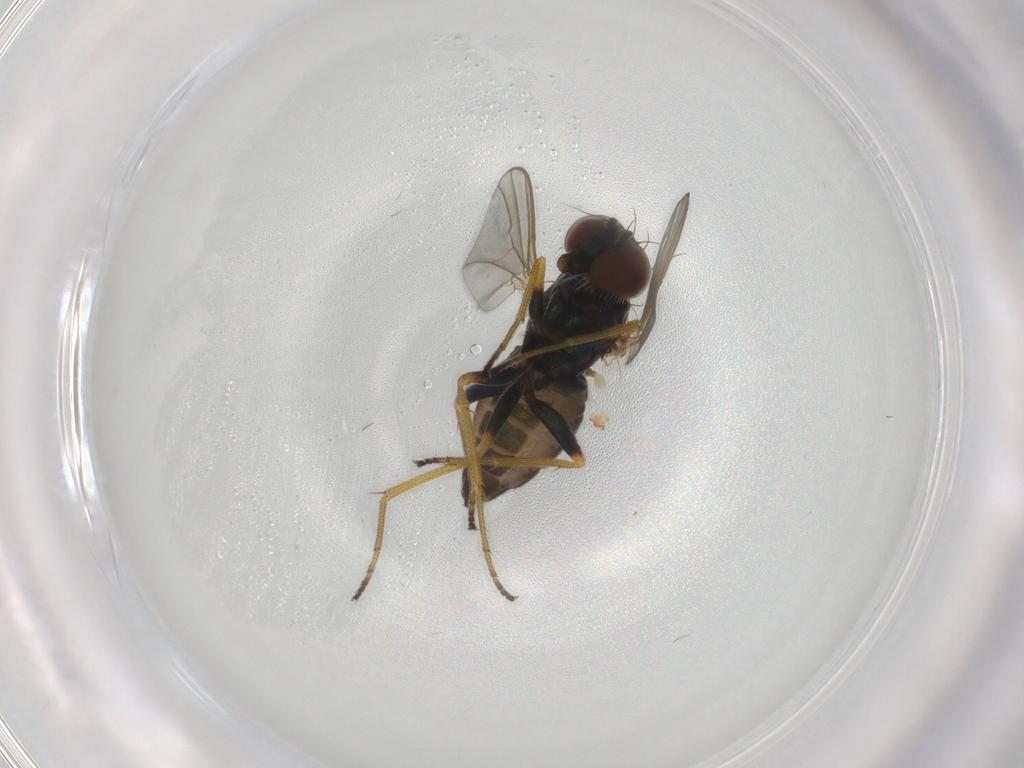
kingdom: Animalia
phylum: Arthropoda
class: Insecta
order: Diptera
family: Dolichopodidae
